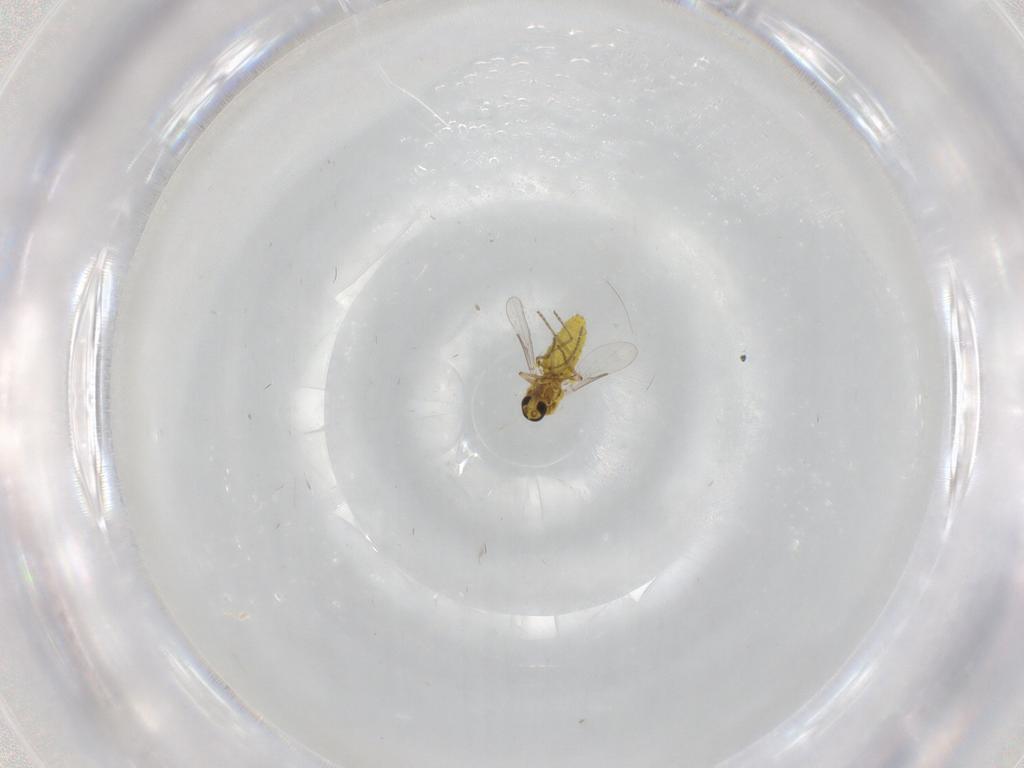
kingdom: Animalia
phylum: Arthropoda
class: Insecta
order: Diptera
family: Ceratopogonidae
